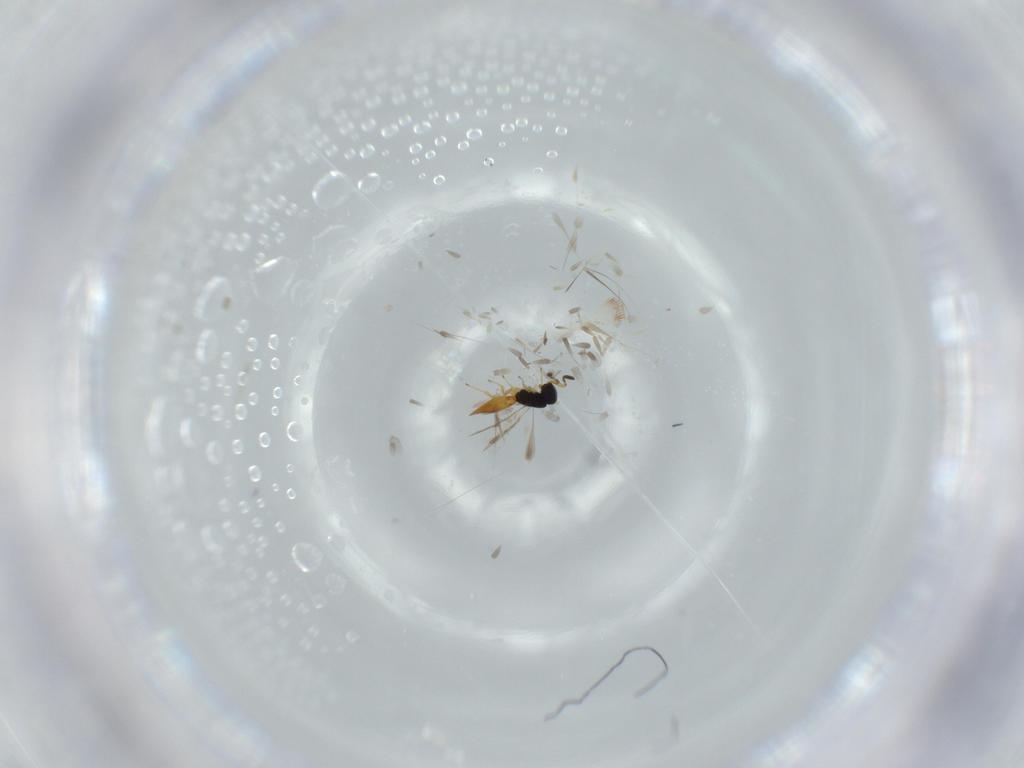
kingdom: Animalia
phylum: Arthropoda
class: Insecta
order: Hymenoptera
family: Scelionidae
